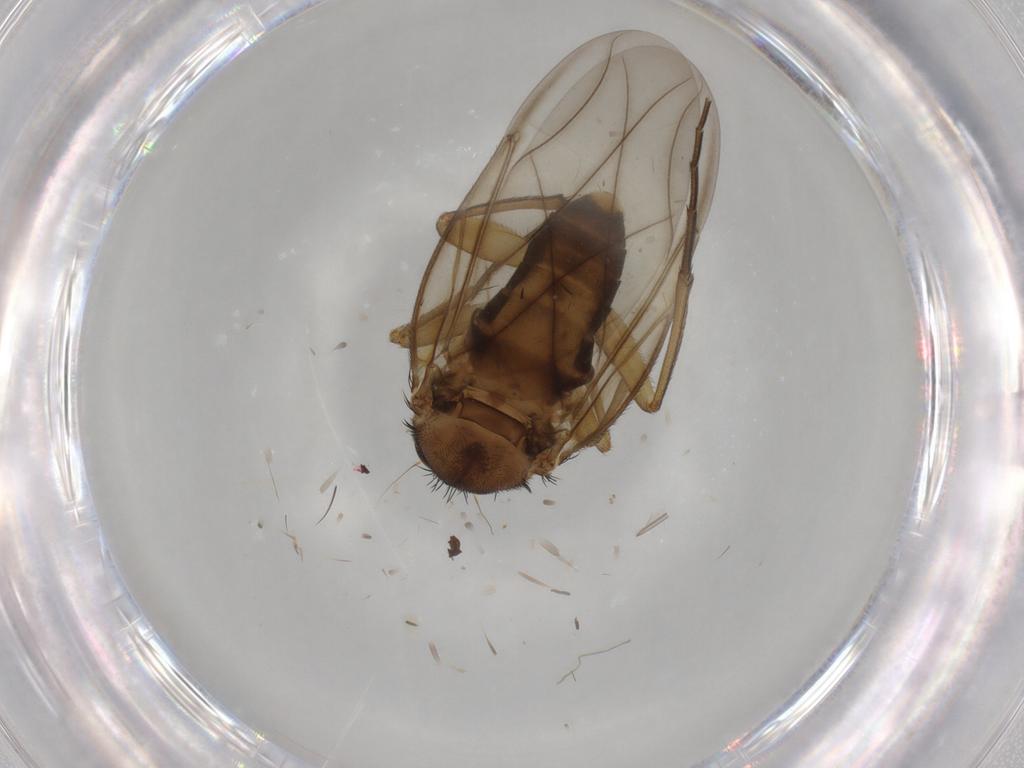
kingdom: Animalia
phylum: Arthropoda
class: Insecta
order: Diptera
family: Phoridae
